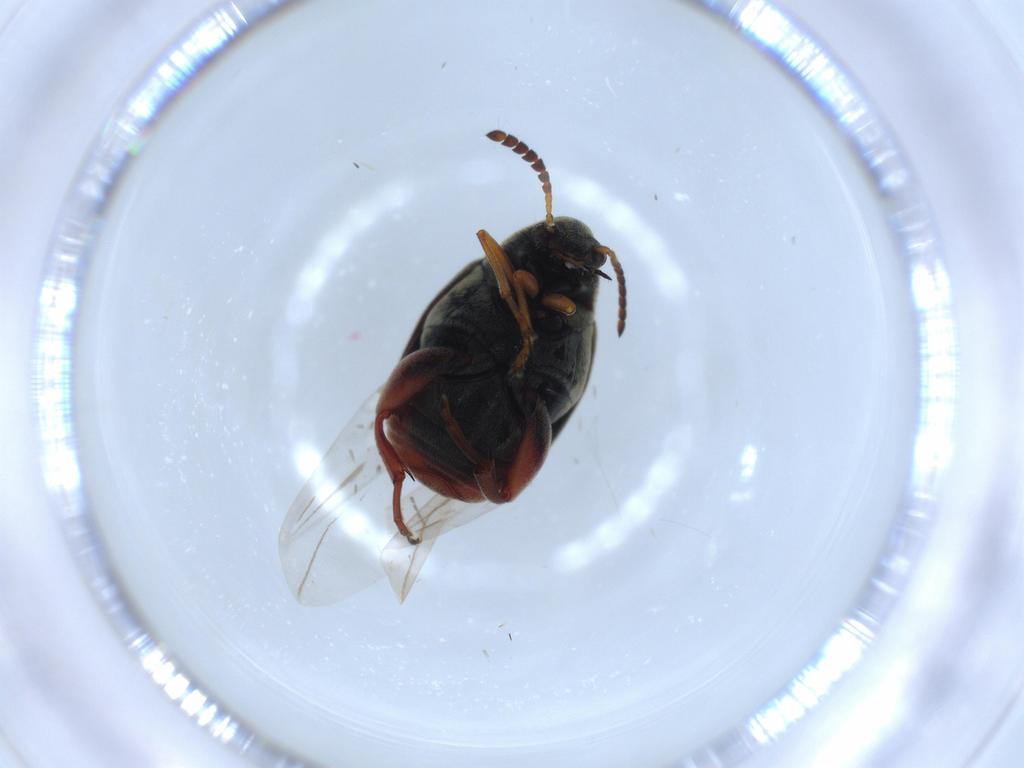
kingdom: Animalia
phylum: Arthropoda
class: Insecta
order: Coleoptera
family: Chrysomelidae
